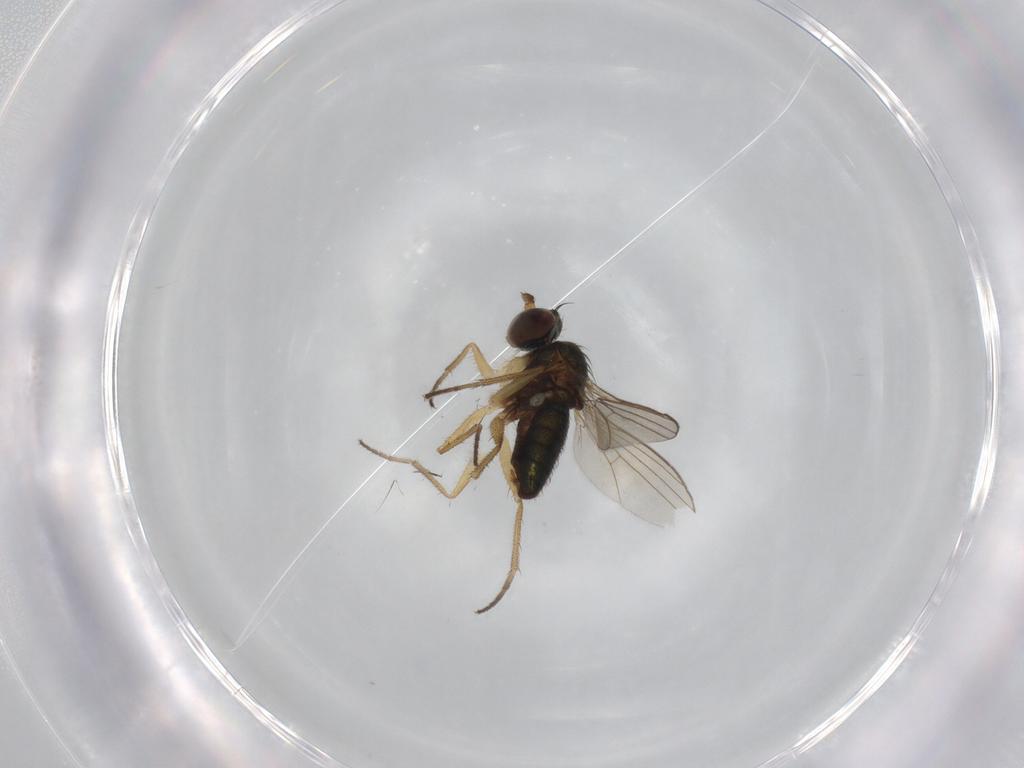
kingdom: Animalia
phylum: Arthropoda
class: Insecta
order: Diptera
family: Dolichopodidae
